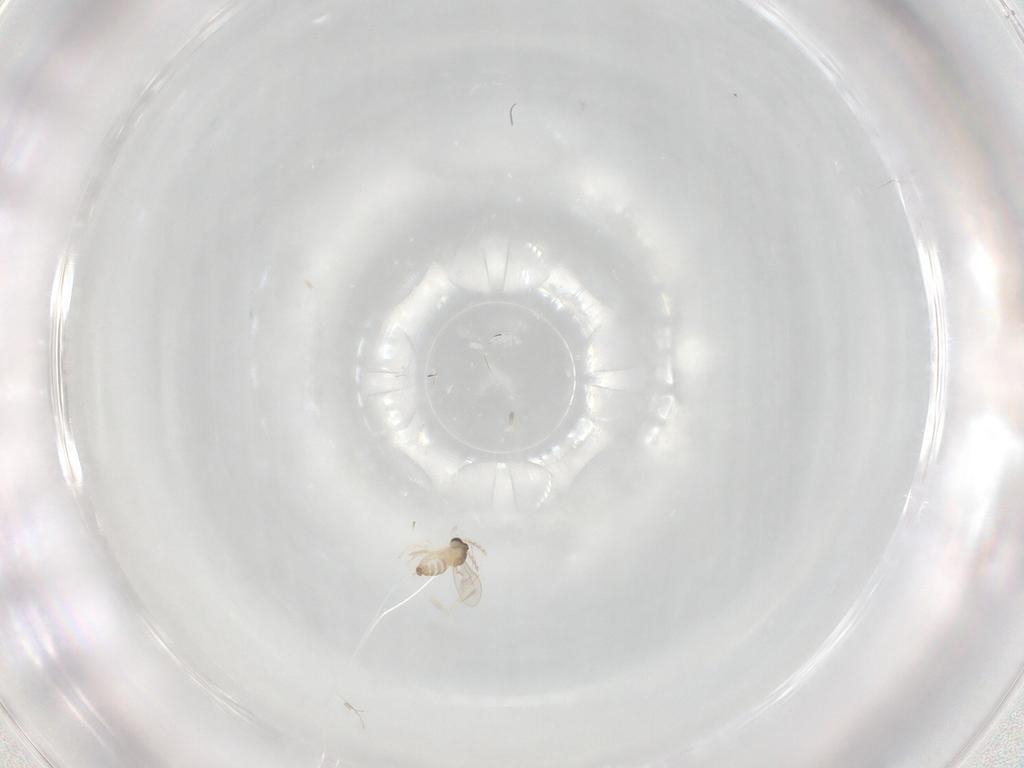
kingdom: Animalia
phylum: Arthropoda
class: Insecta
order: Diptera
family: Cecidomyiidae
